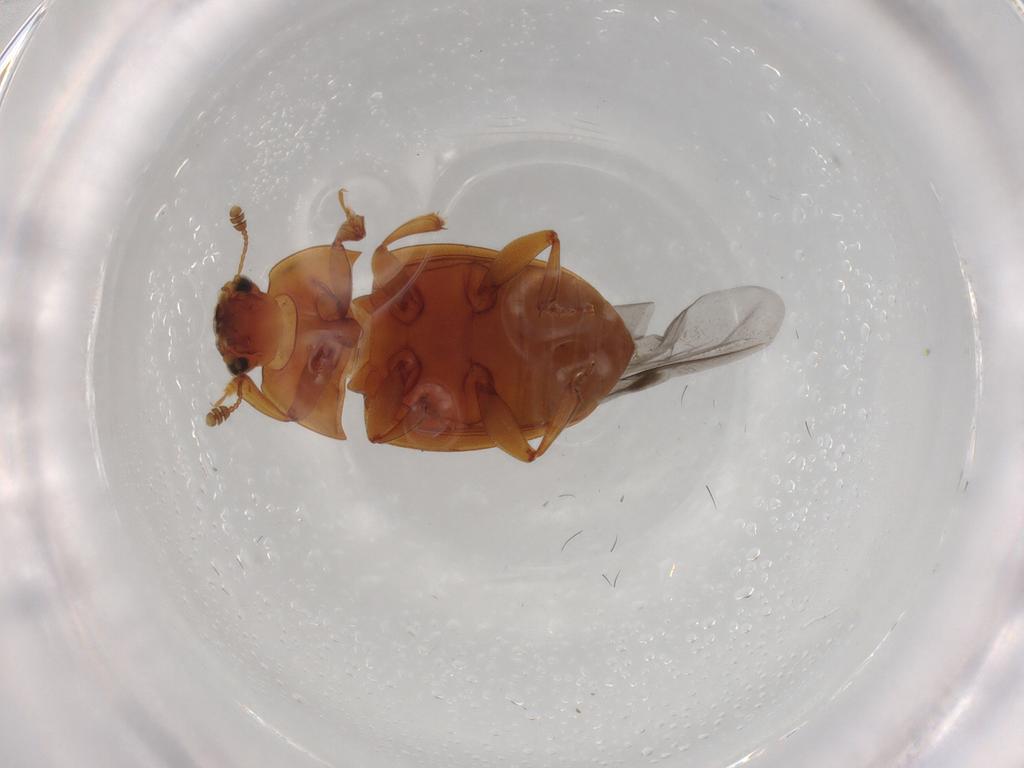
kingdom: Animalia
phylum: Arthropoda
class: Insecta
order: Coleoptera
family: Nitidulidae
